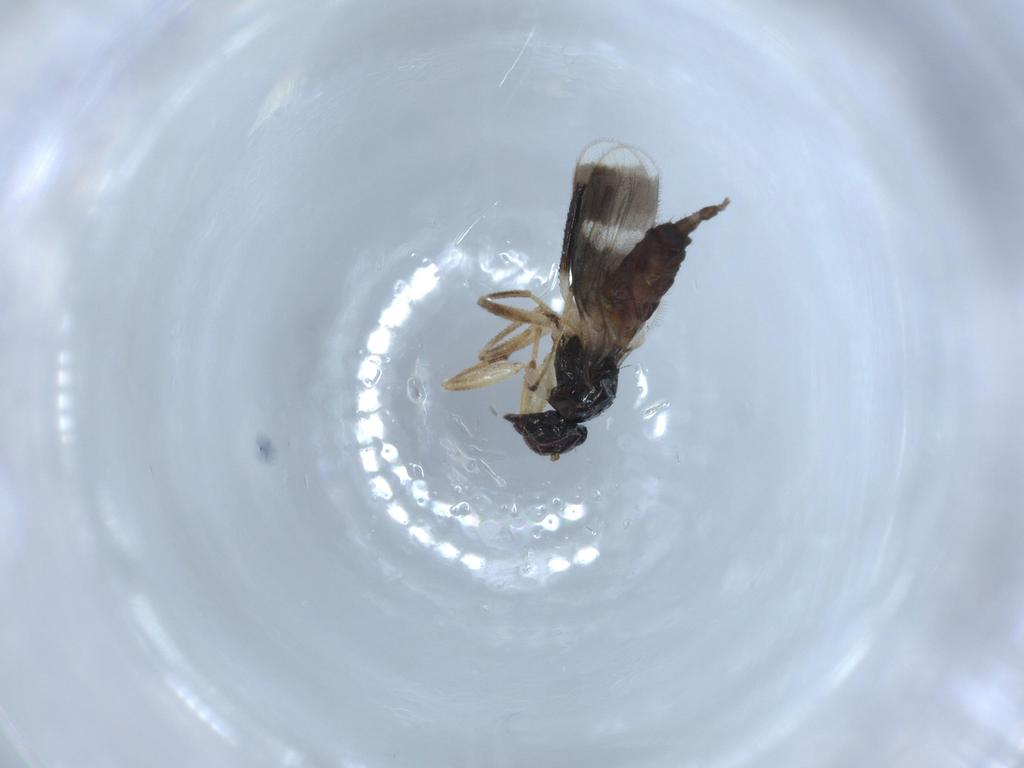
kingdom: Animalia
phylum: Arthropoda
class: Insecta
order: Diptera
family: Hybotidae
